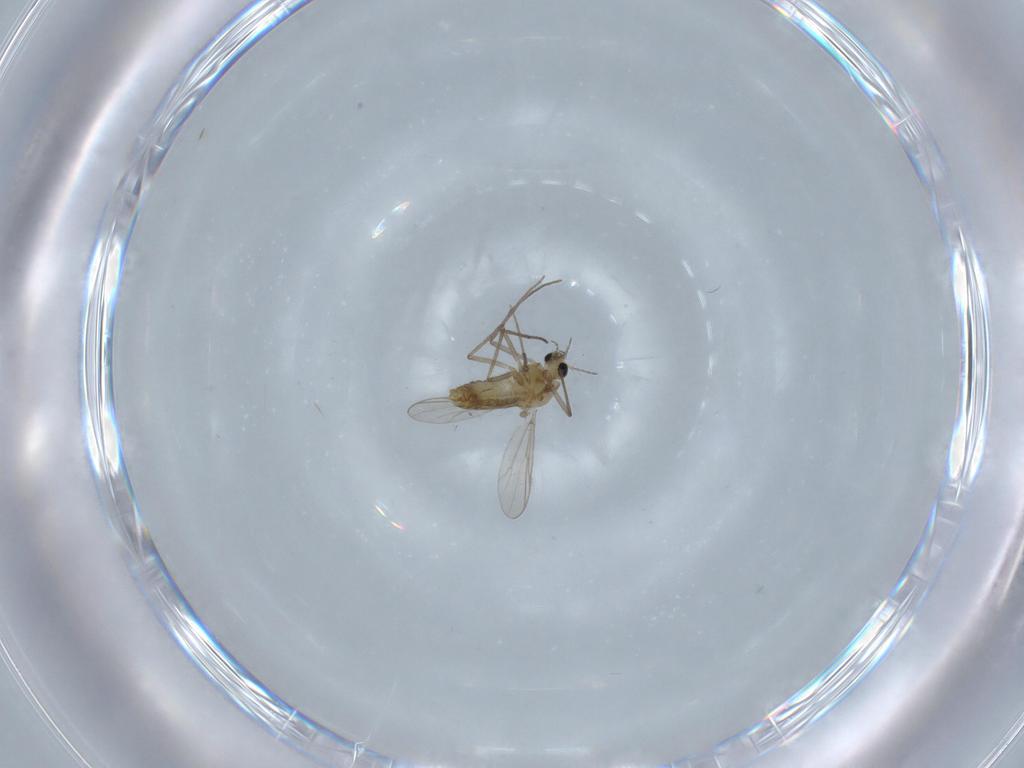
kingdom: Animalia
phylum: Arthropoda
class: Insecta
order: Diptera
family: Chironomidae
